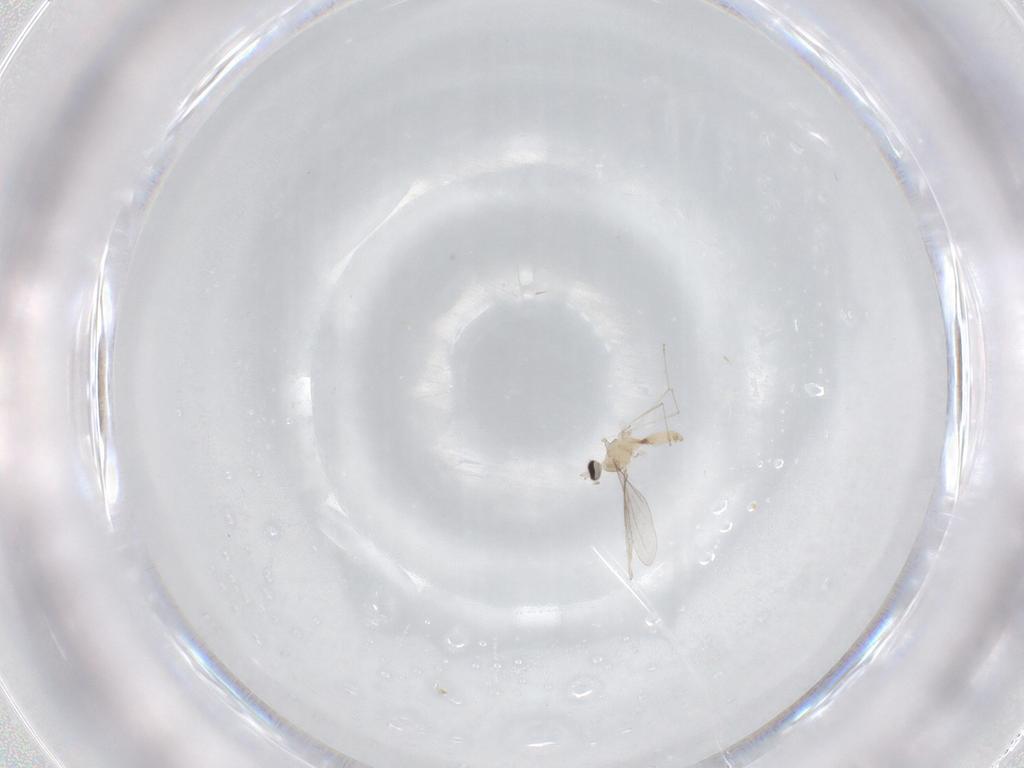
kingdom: Animalia
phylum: Arthropoda
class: Insecta
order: Diptera
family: Cecidomyiidae
